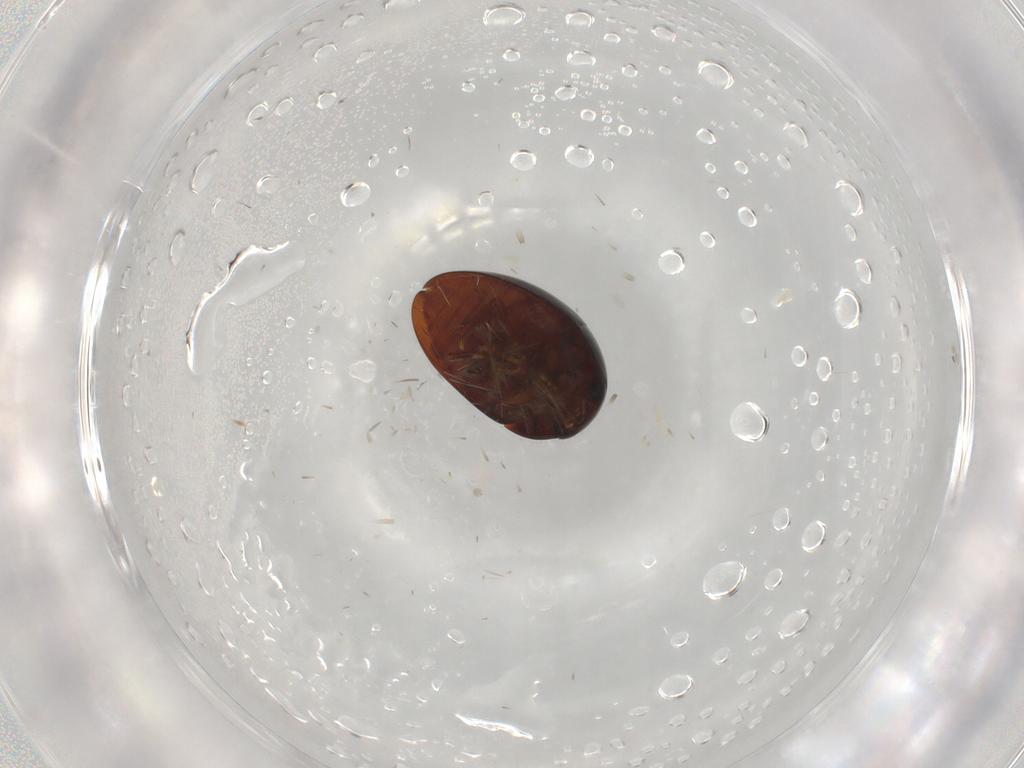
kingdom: Animalia
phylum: Arthropoda
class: Insecta
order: Coleoptera
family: Phalacridae
